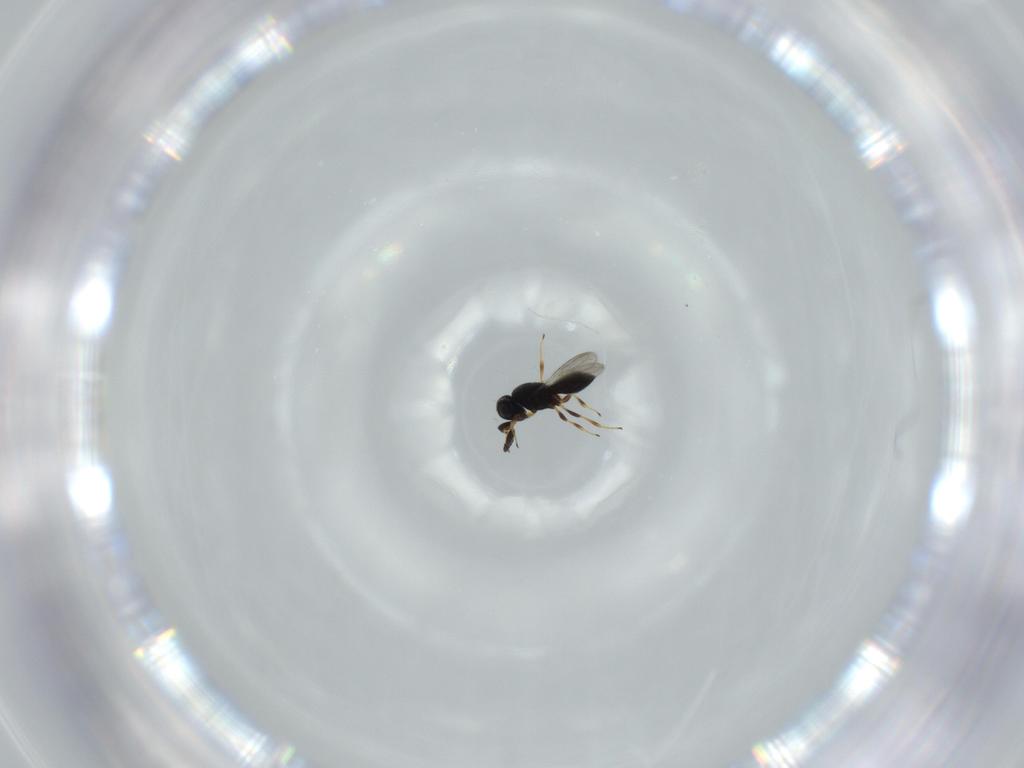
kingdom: Animalia
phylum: Arthropoda
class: Insecta
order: Hymenoptera
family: Scelionidae
